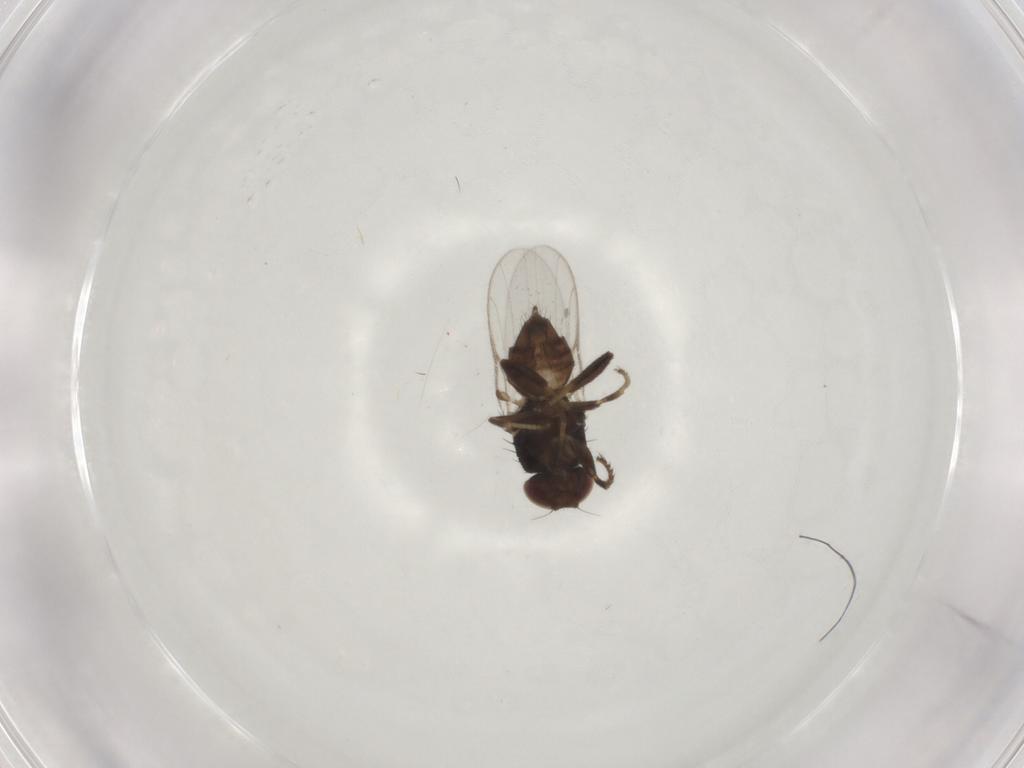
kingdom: Animalia
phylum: Arthropoda
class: Insecta
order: Diptera
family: Chloropidae
